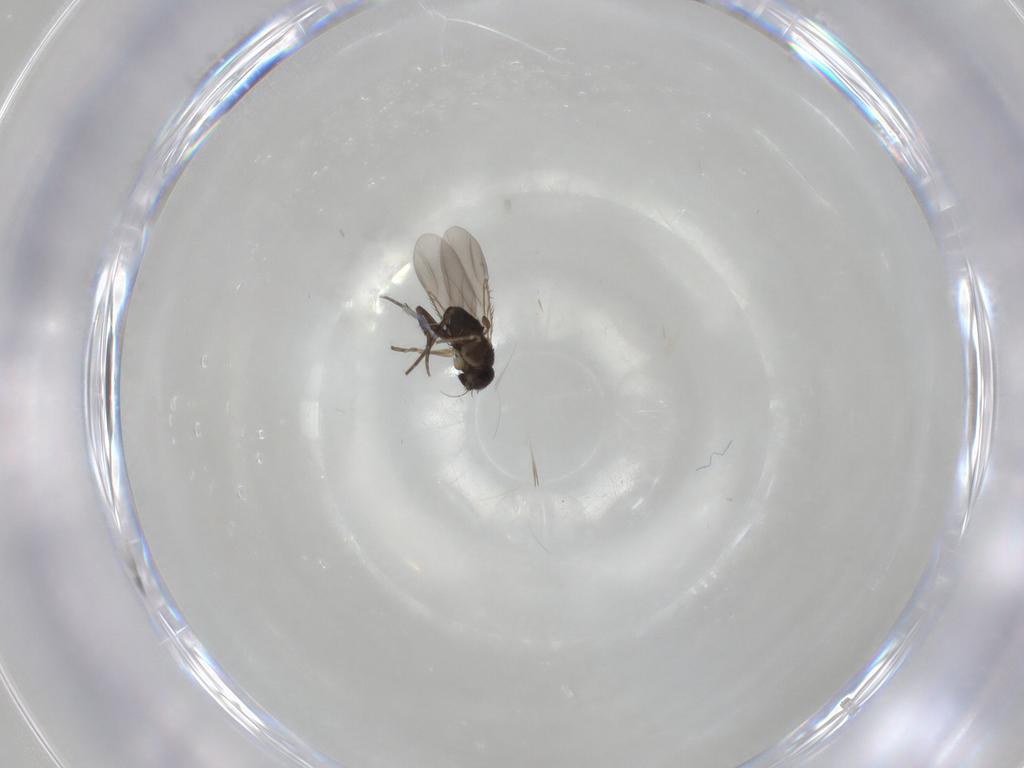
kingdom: Animalia
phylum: Arthropoda
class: Insecta
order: Diptera
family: Phoridae
